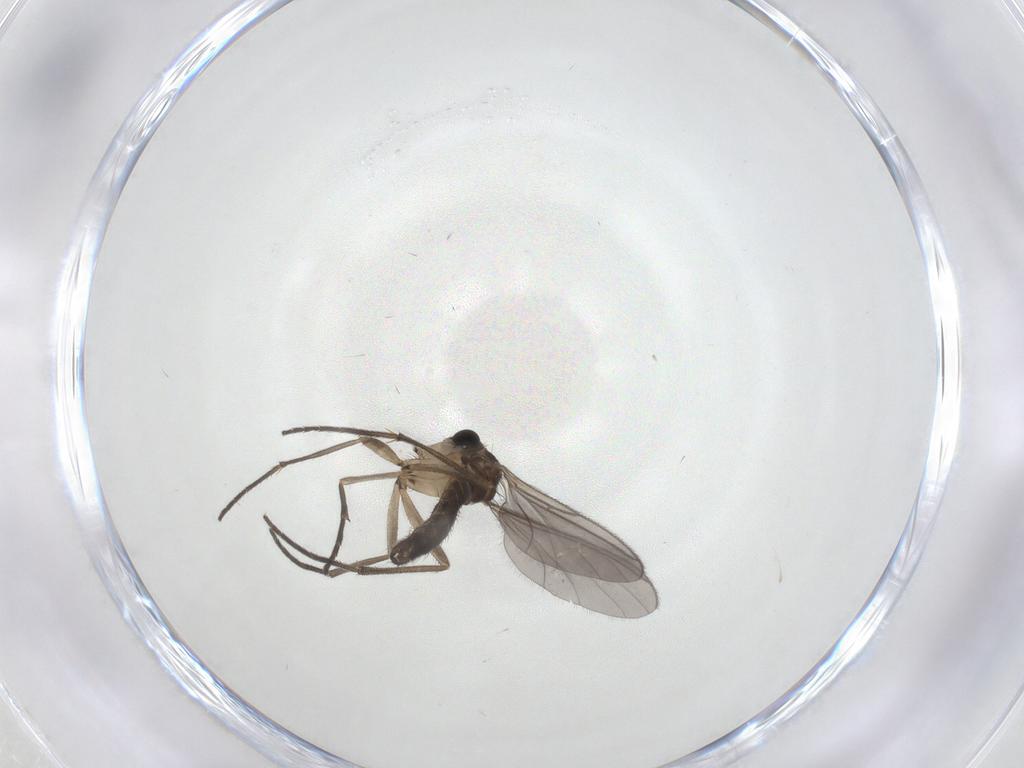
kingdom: Animalia
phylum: Arthropoda
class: Insecta
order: Diptera
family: Sciaridae
